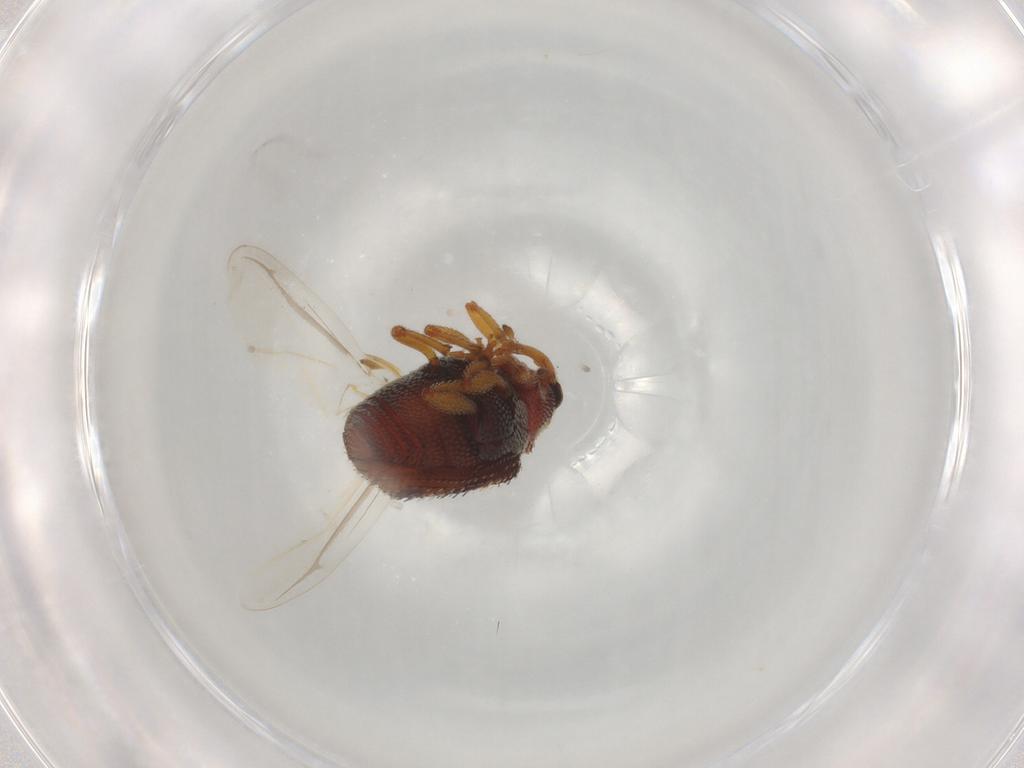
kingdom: Animalia
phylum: Arthropoda
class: Insecta
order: Coleoptera
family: Curculionidae
